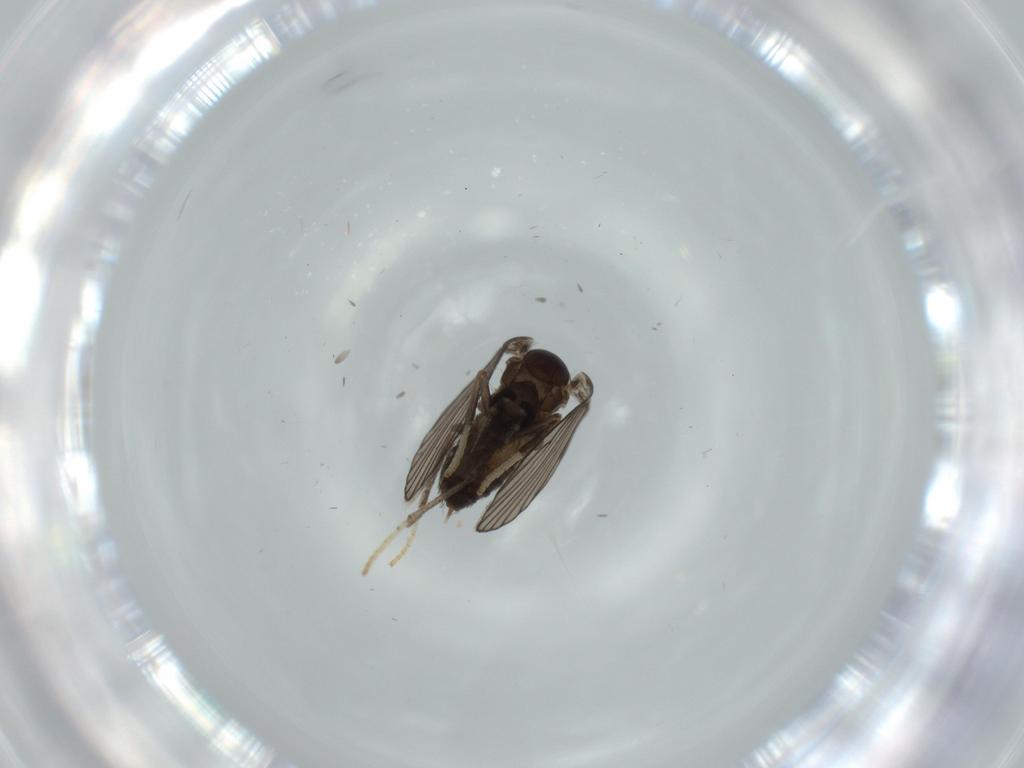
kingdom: Animalia
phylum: Arthropoda
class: Insecta
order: Diptera
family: Psychodidae
